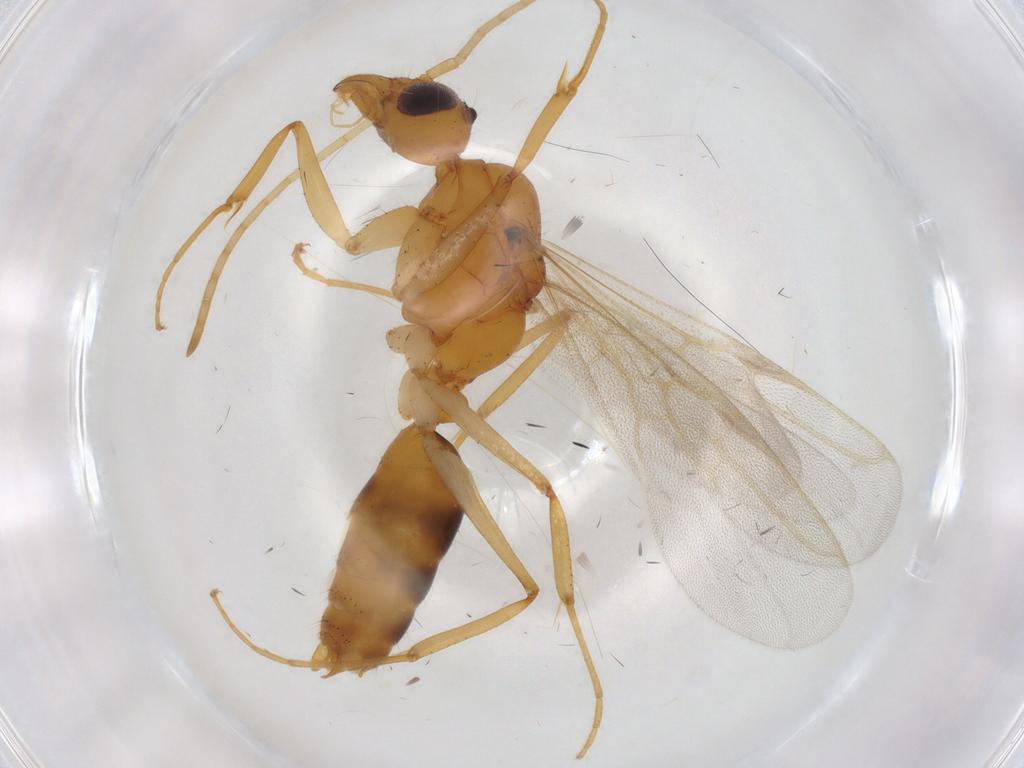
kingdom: Animalia
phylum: Arthropoda
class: Insecta
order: Hymenoptera
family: Formicidae
